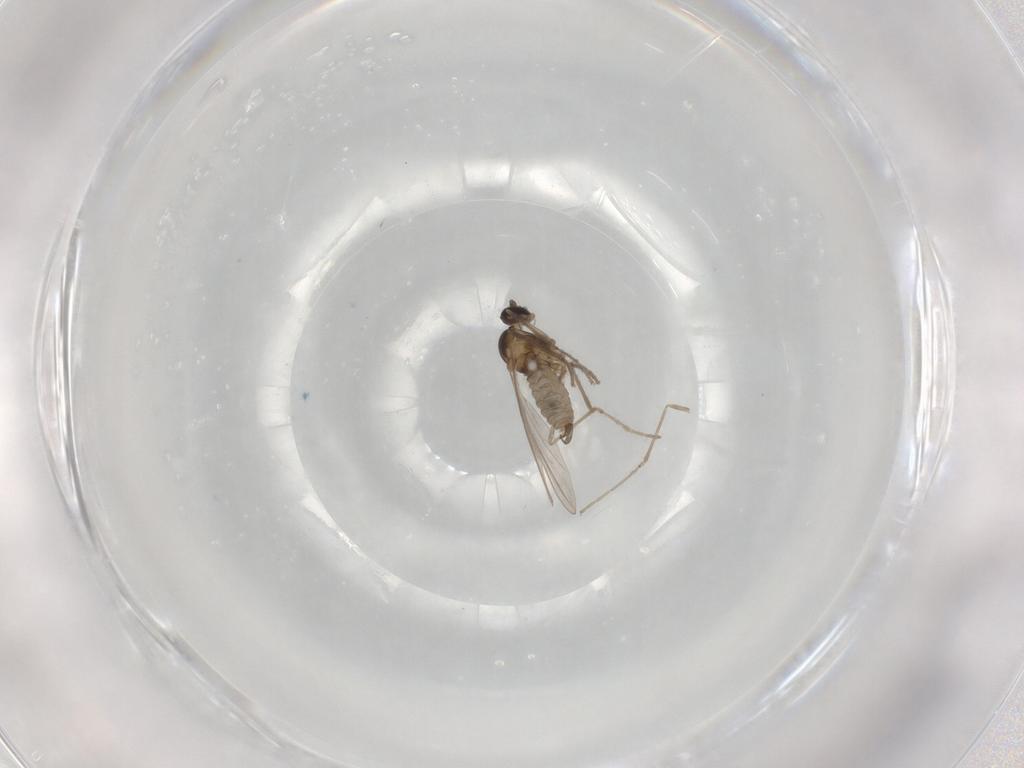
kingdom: Animalia
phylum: Arthropoda
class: Insecta
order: Diptera
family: Cecidomyiidae
